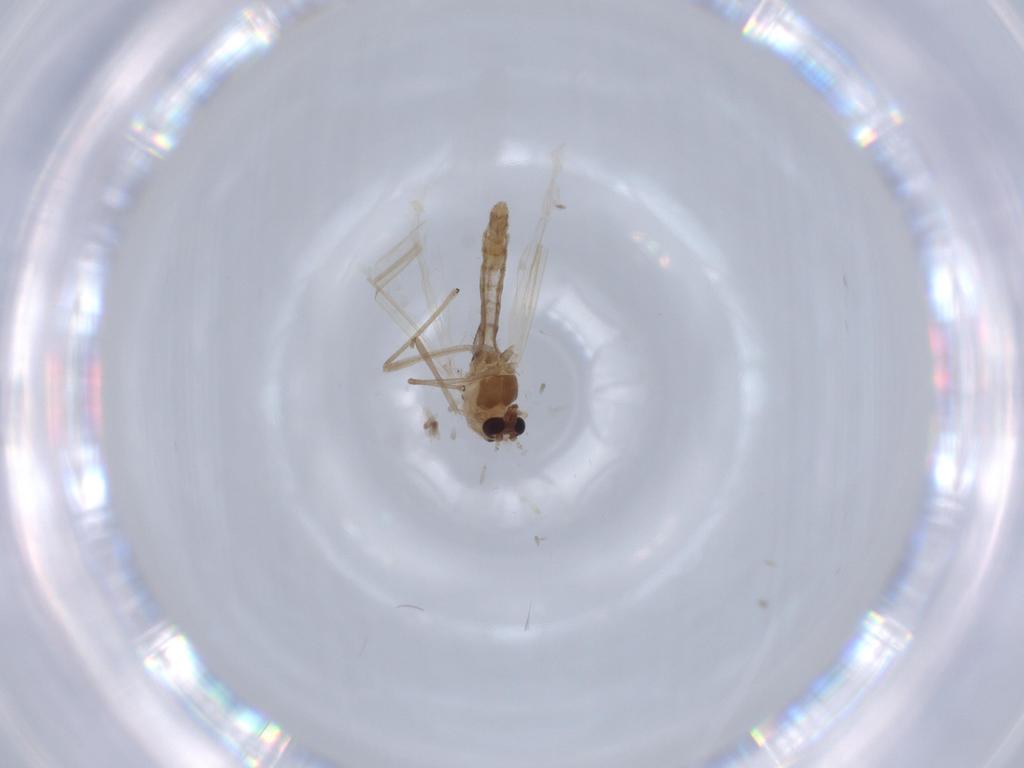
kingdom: Animalia
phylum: Arthropoda
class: Insecta
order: Diptera
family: Chironomidae
